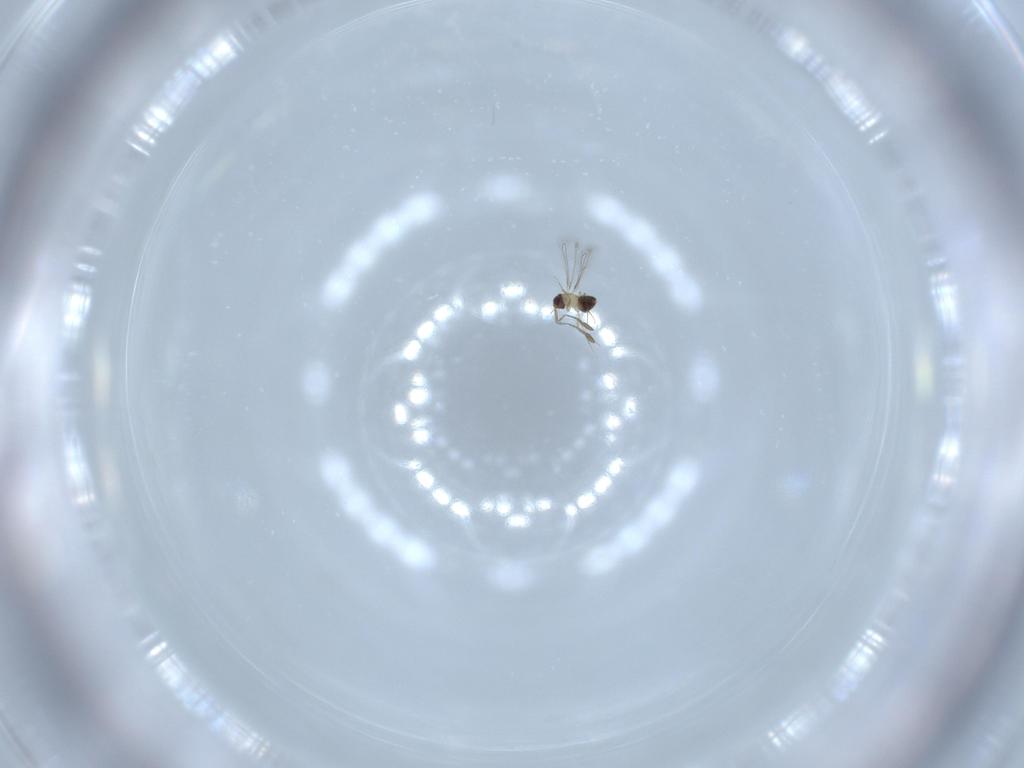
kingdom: Animalia
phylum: Arthropoda
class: Insecta
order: Hymenoptera
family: Mymaridae
